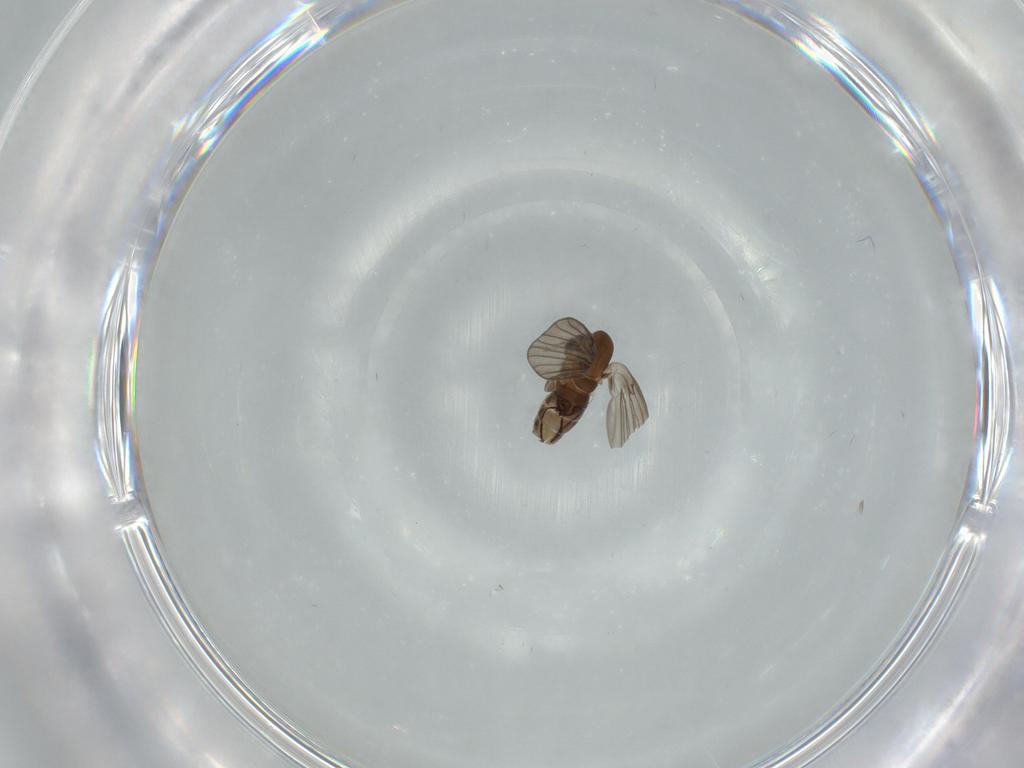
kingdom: Animalia
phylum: Arthropoda
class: Insecta
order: Diptera
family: Psychodidae
